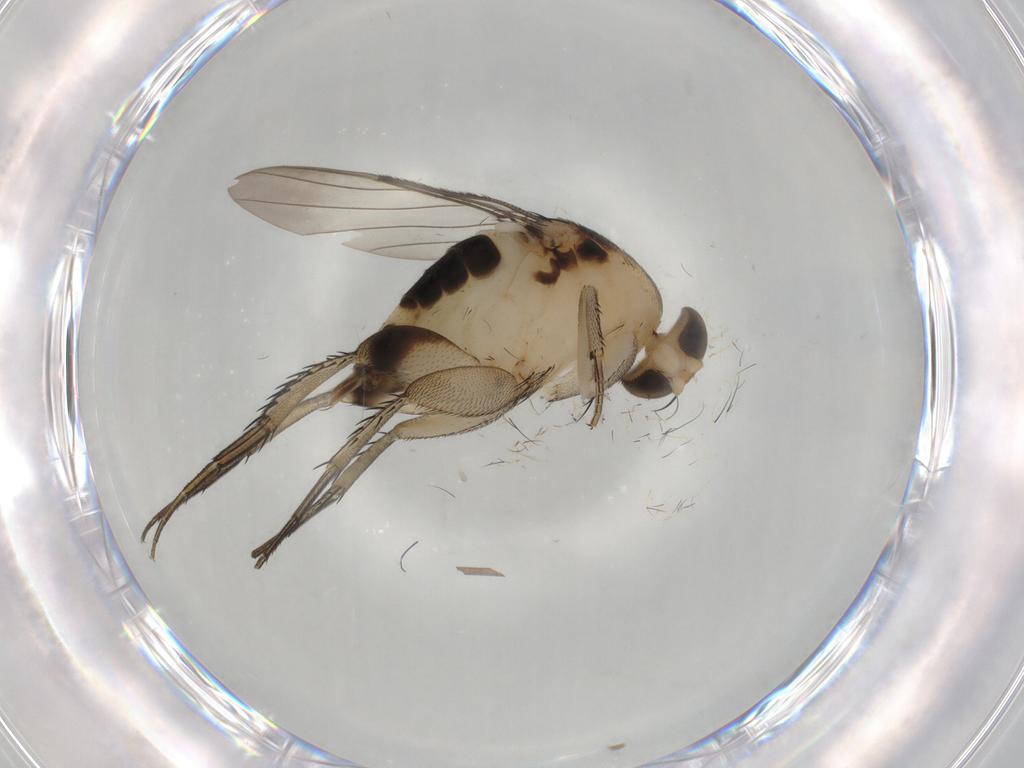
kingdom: Animalia
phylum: Arthropoda
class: Insecta
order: Diptera
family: Phoridae
